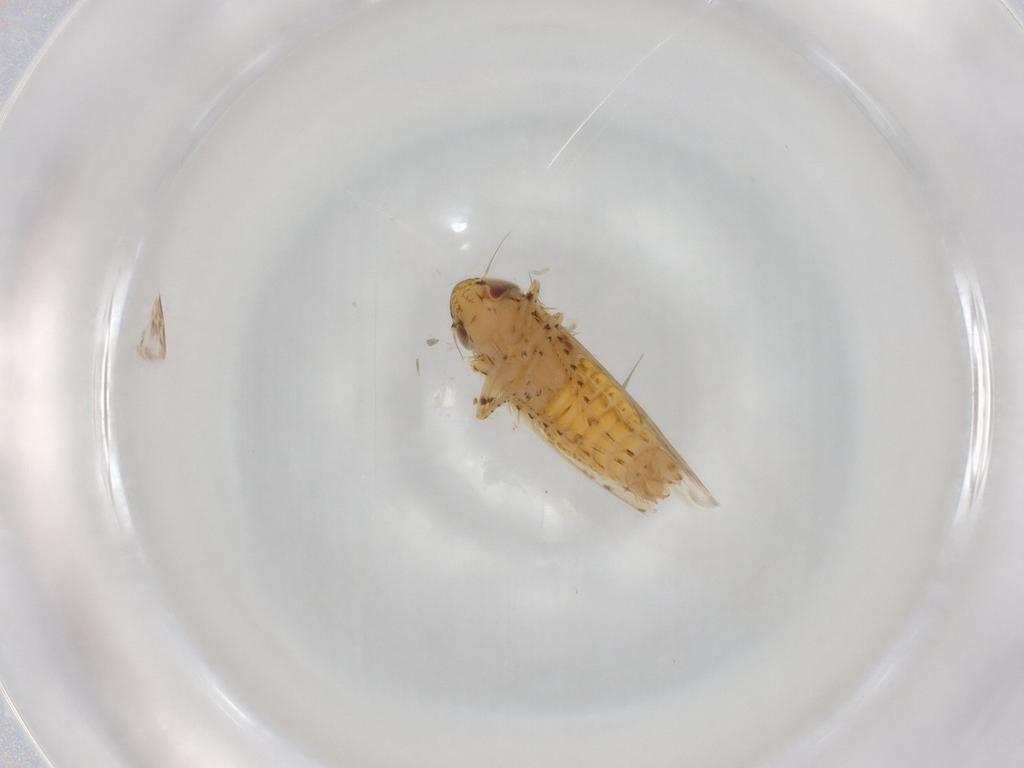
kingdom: Animalia
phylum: Arthropoda
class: Insecta
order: Hemiptera
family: Cicadellidae
